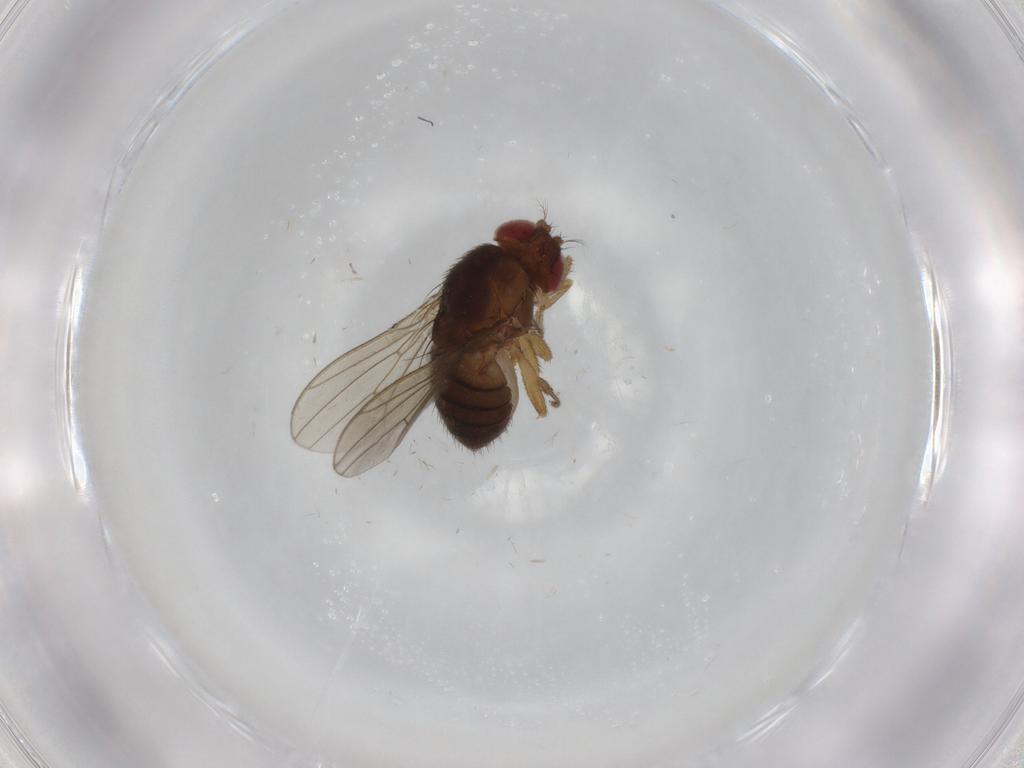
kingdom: Animalia
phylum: Arthropoda
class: Insecta
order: Diptera
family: Drosophilidae
